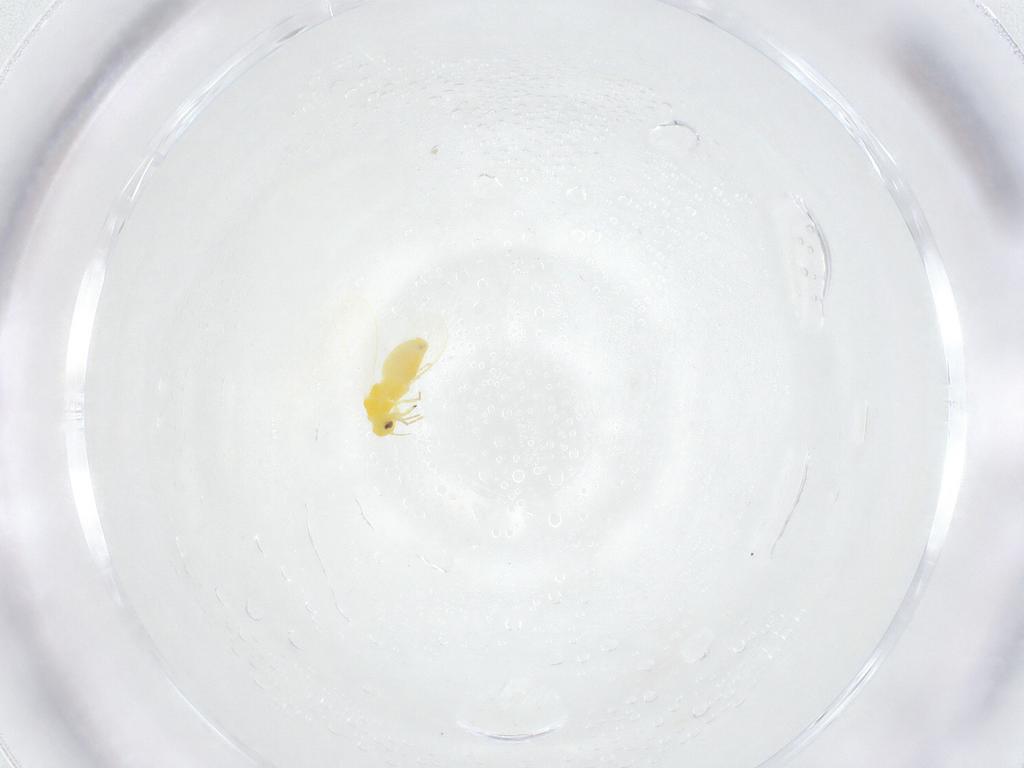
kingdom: Animalia
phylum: Arthropoda
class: Insecta
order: Hemiptera
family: Aleyrodidae
